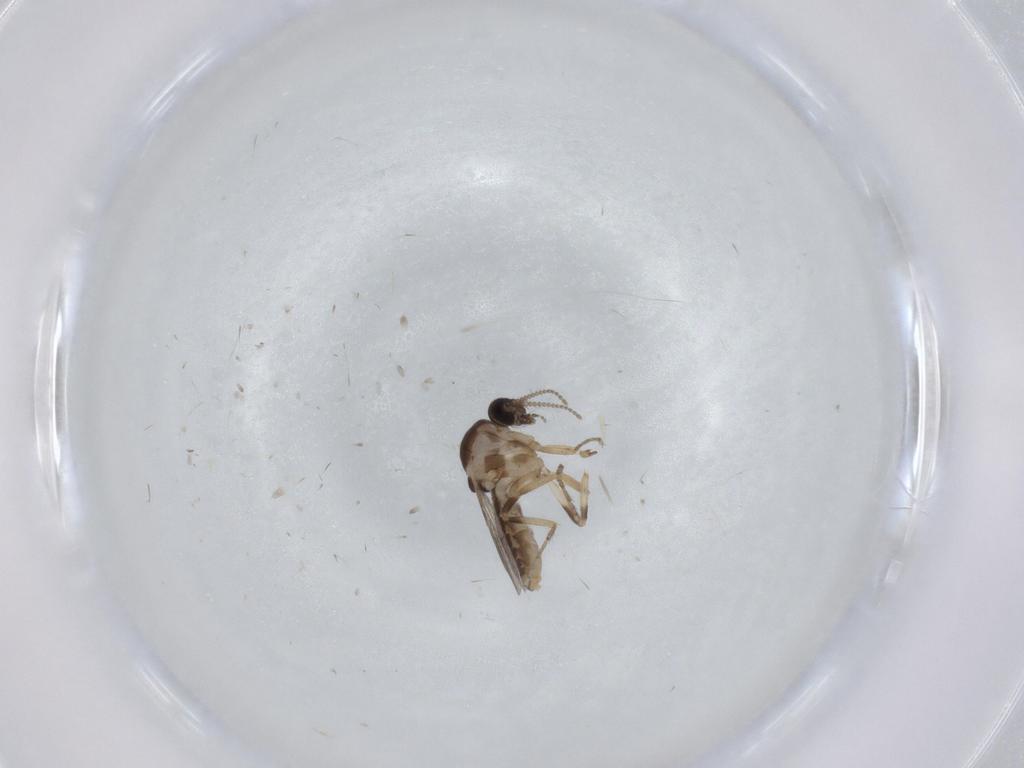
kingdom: Animalia
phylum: Arthropoda
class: Insecta
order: Diptera
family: Ceratopogonidae
